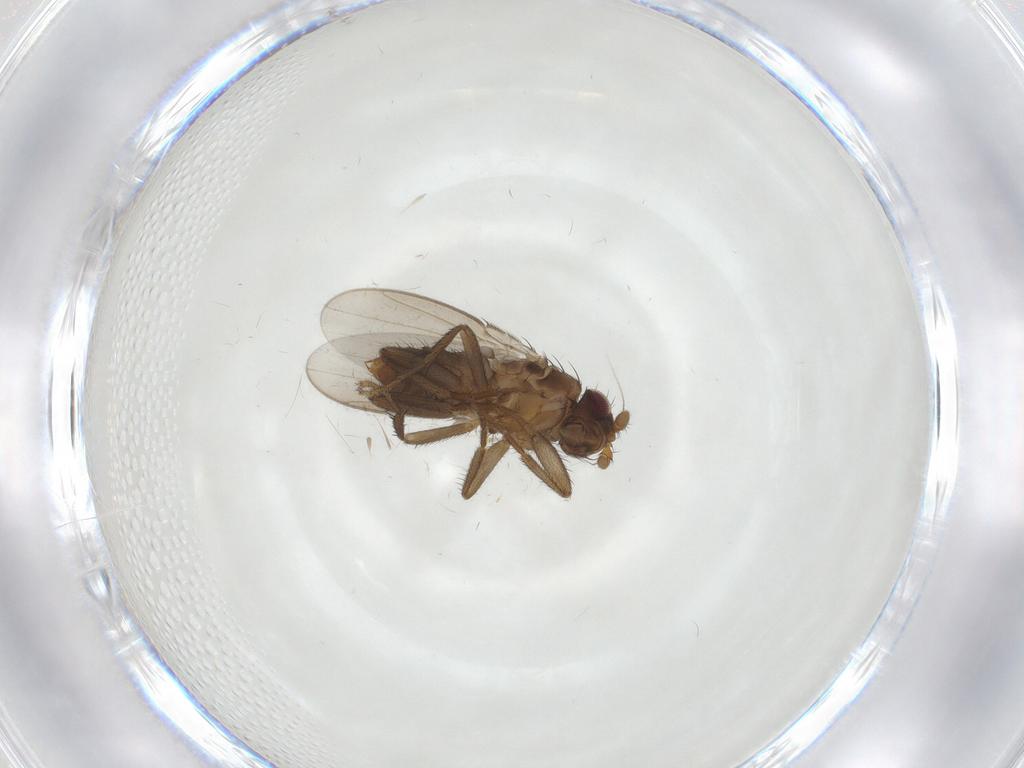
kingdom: Animalia
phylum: Arthropoda
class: Insecta
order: Diptera
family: Sphaeroceridae
